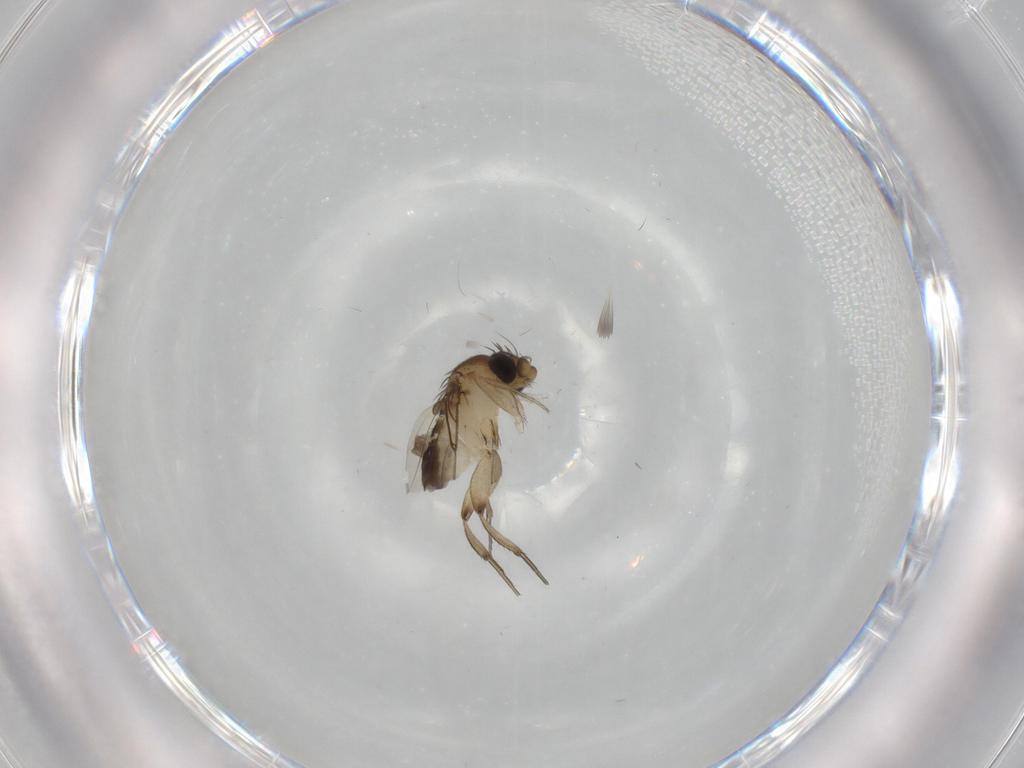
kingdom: Animalia
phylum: Arthropoda
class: Insecta
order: Diptera
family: Phoridae
